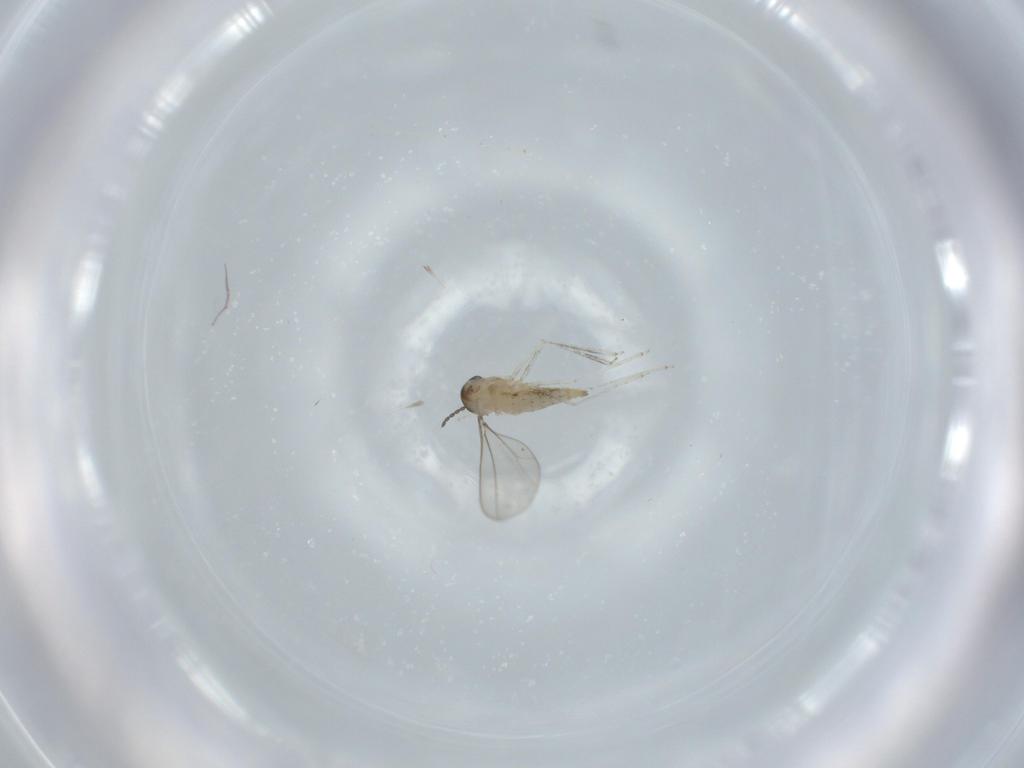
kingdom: Animalia
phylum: Arthropoda
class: Insecta
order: Diptera
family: Cecidomyiidae
